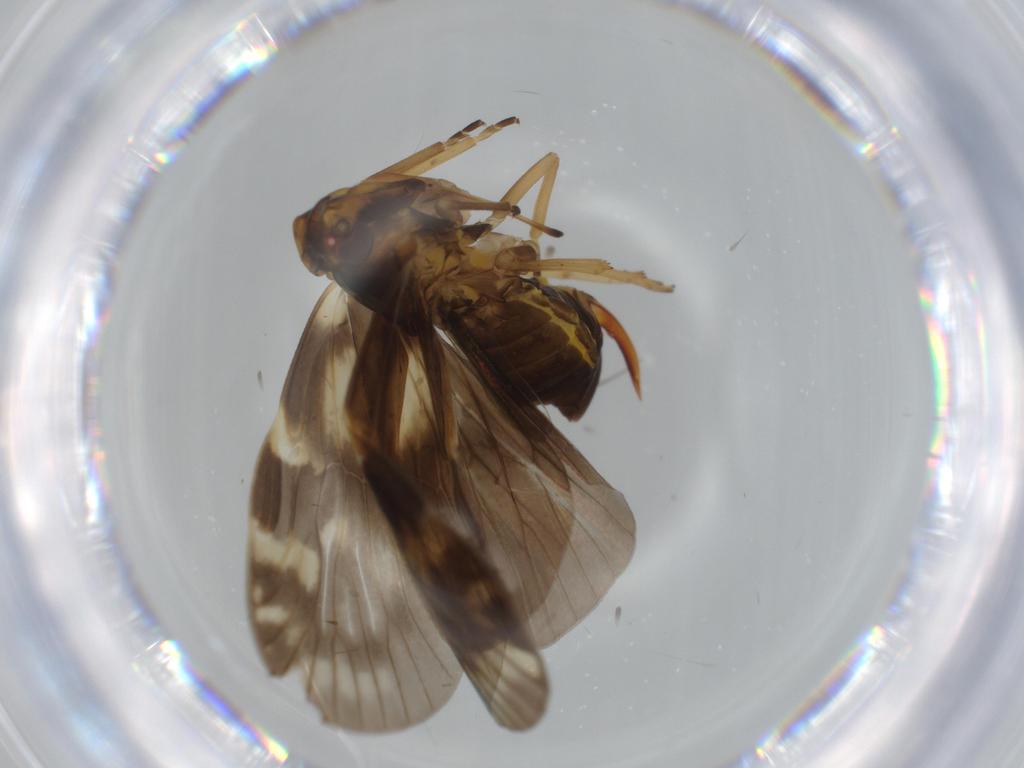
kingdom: Animalia
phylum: Arthropoda
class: Insecta
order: Hemiptera
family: Cixiidae
